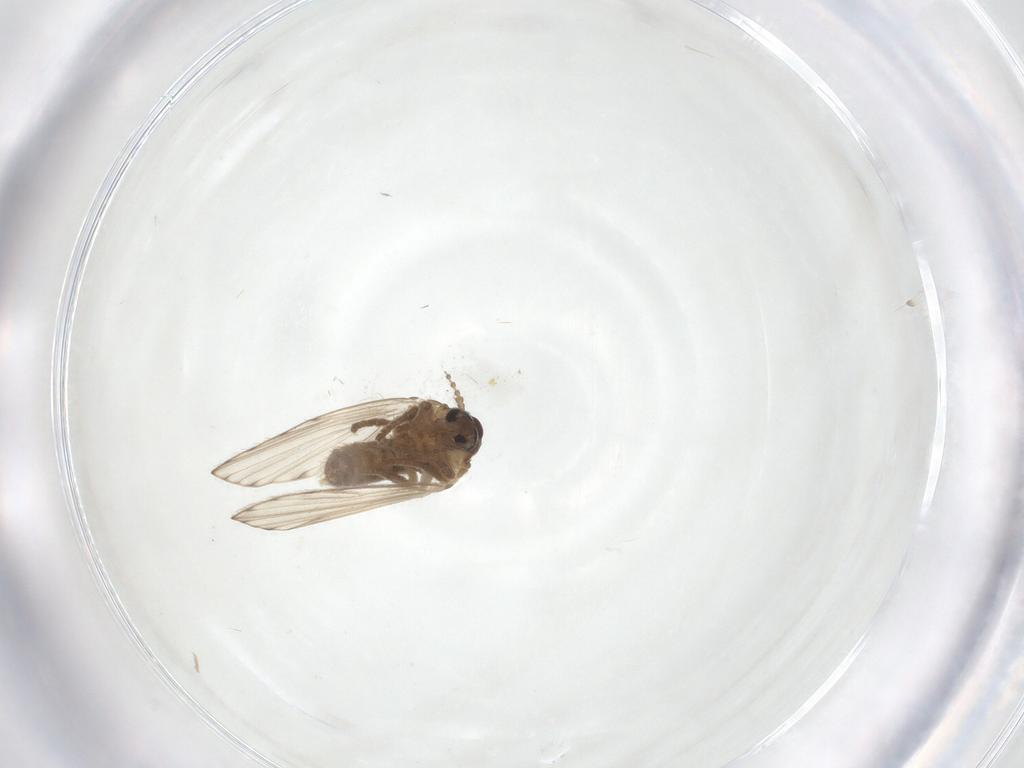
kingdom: Animalia
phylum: Arthropoda
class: Insecta
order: Diptera
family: Psychodidae
